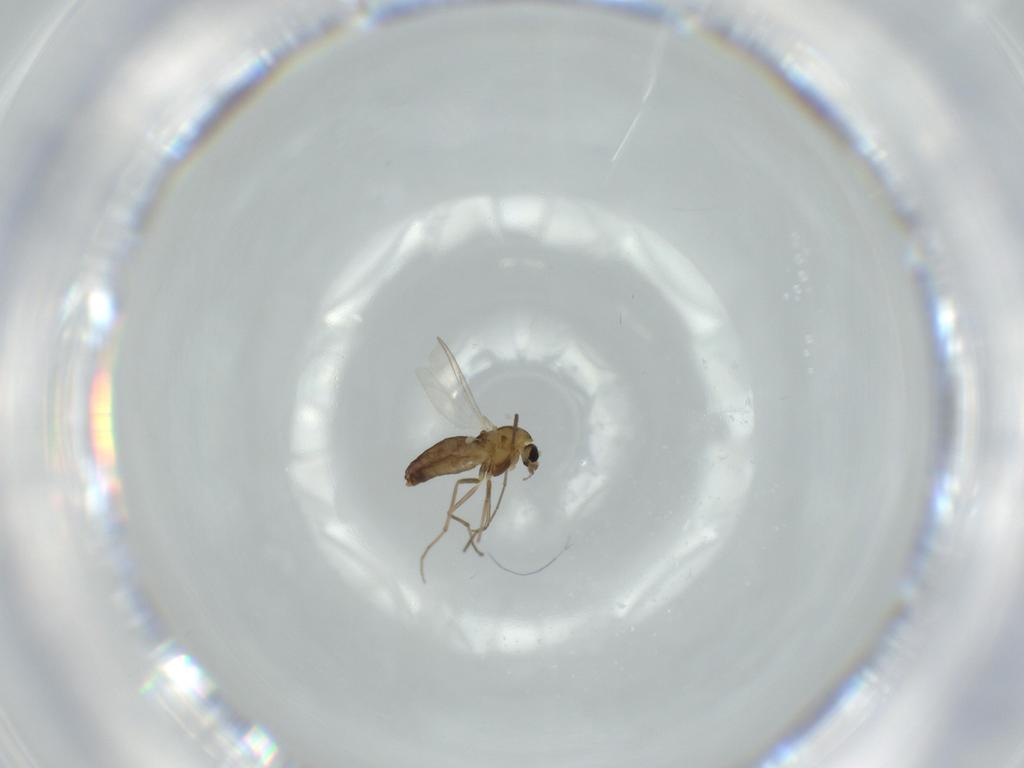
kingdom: Animalia
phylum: Arthropoda
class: Insecta
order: Diptera
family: Chironomidae
